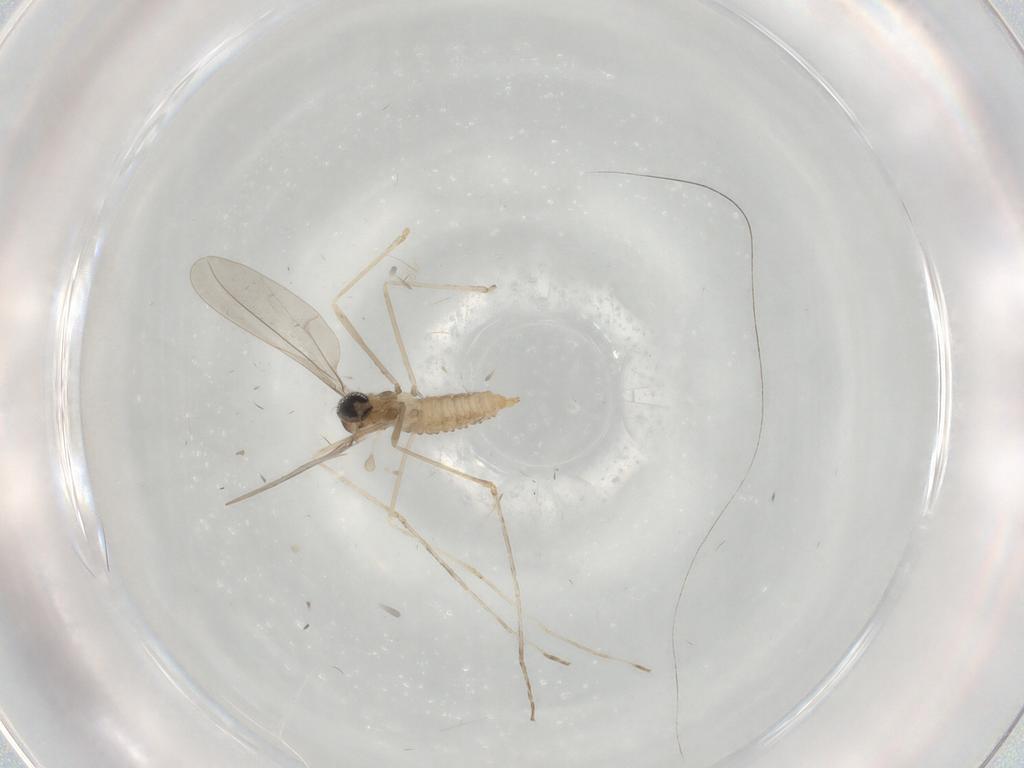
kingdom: Animalia
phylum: Arthropoda
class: Insecta
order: Diptera
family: Cecidomyiidae
